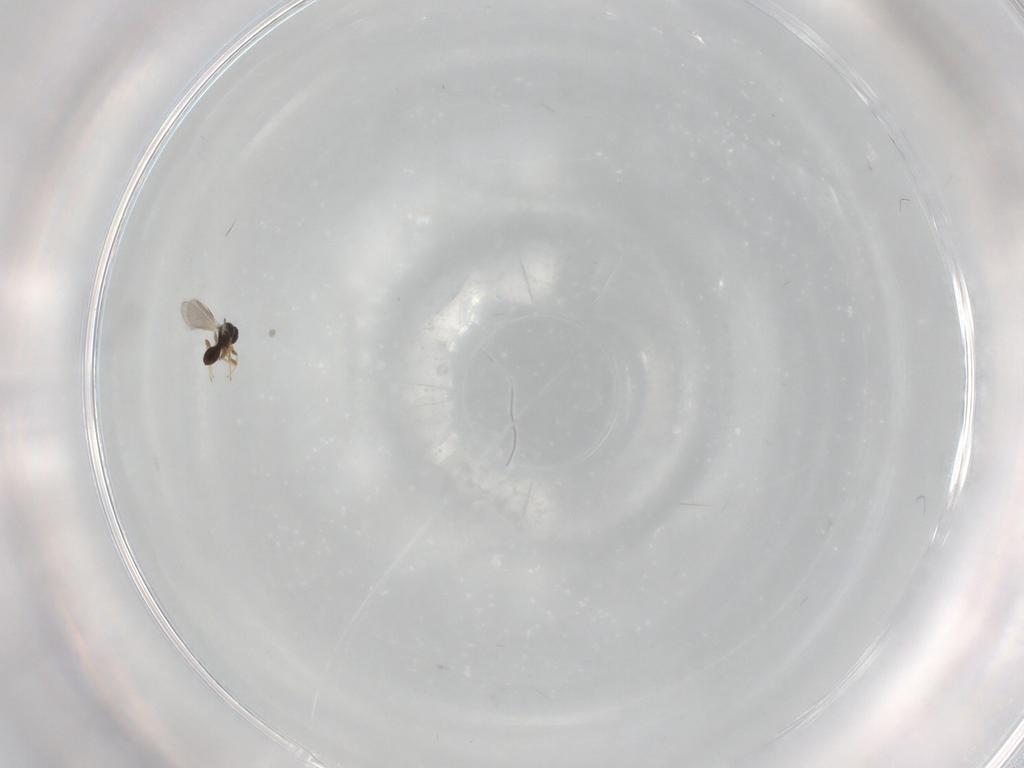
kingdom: Animalia
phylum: Arthropoda
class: Insecta
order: Hymenoptera
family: Platygastridae
